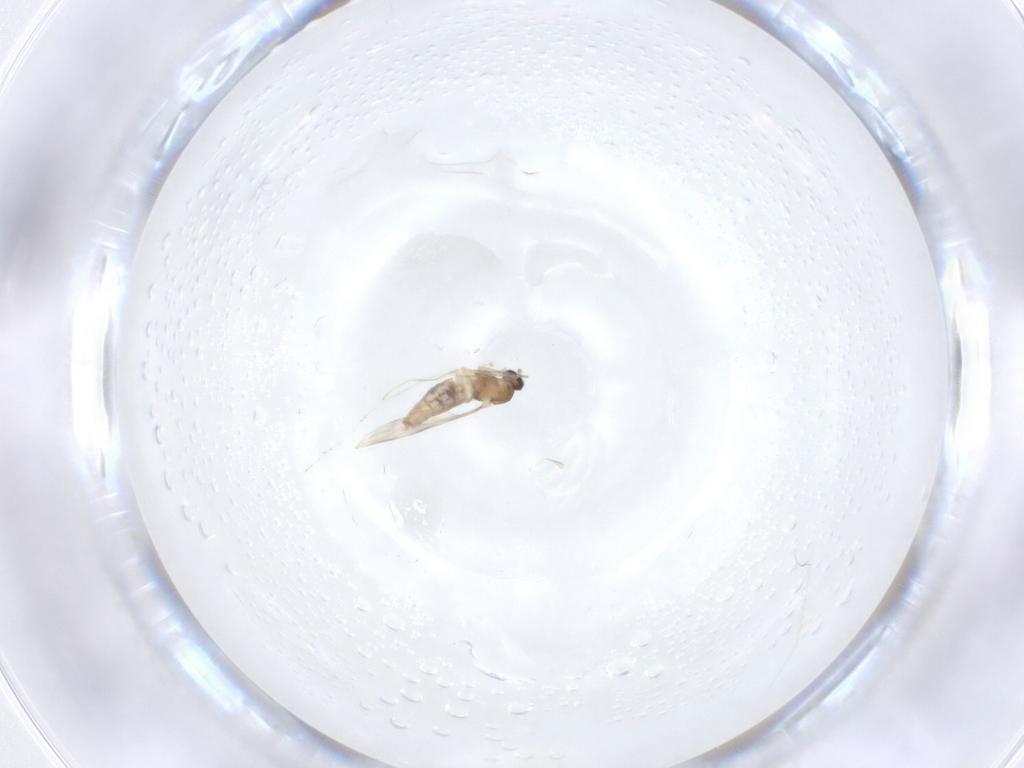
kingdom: Animalia
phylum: Arthropoda
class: Insecta
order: Diptera
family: Cecidomyiidae
